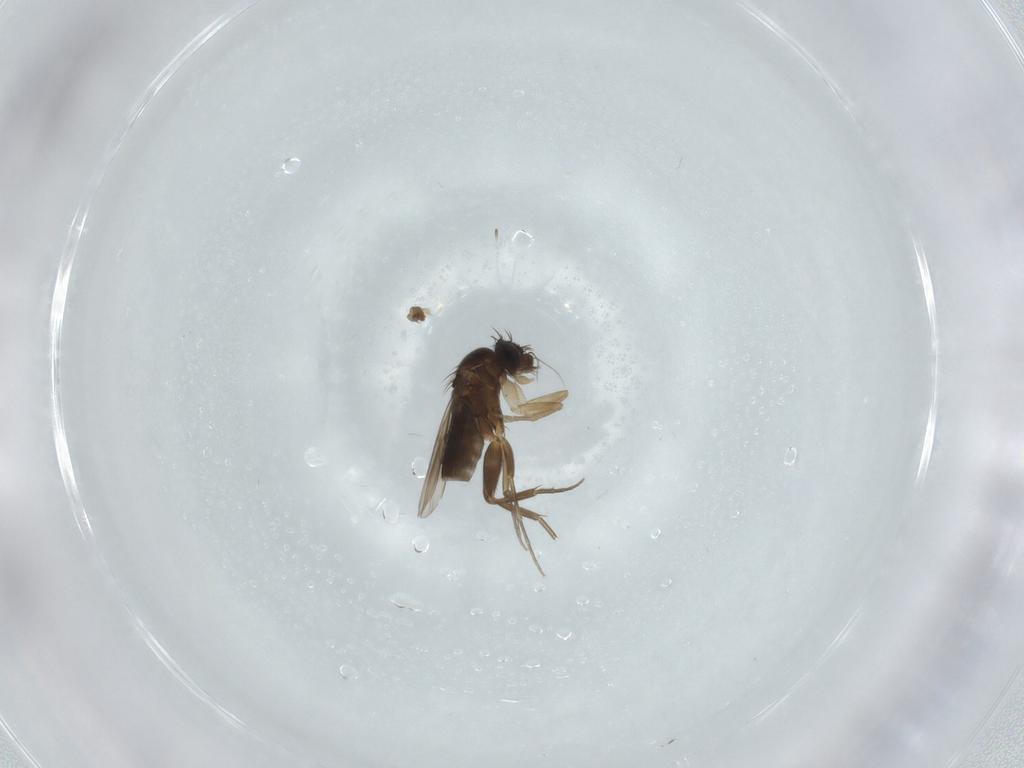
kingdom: Animalia
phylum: Arthropoda
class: Insecta
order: Diptera
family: Phoridae
